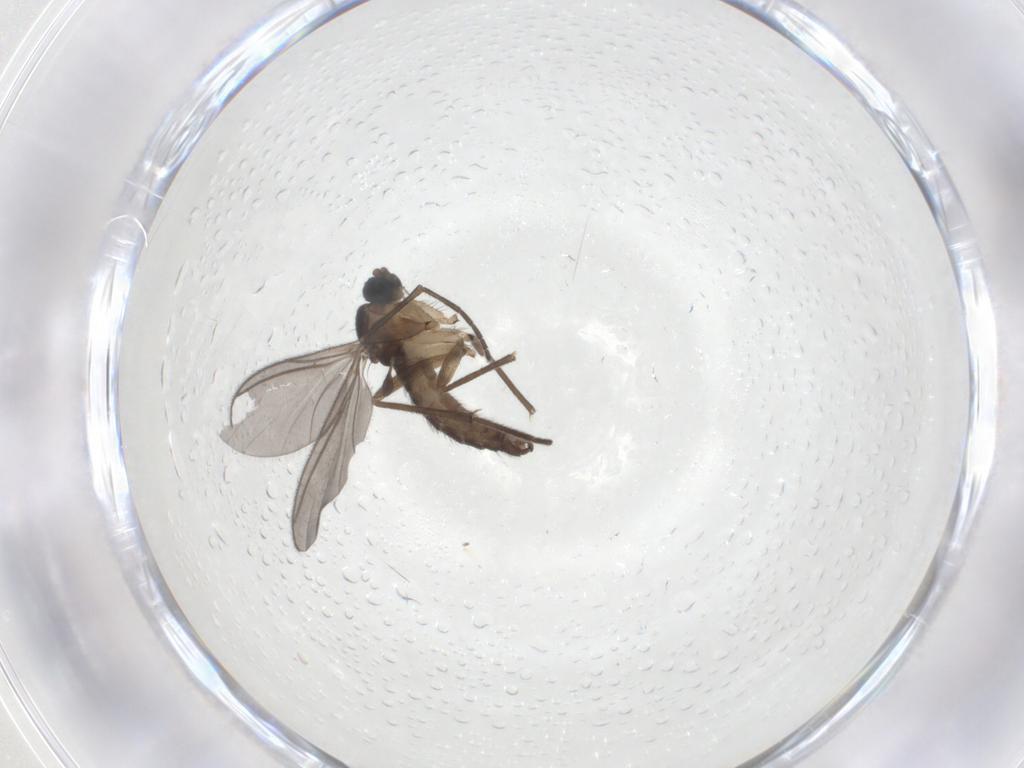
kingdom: Animalia
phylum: Arthropoda
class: Insecta
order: Diptera
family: Sciaridae
